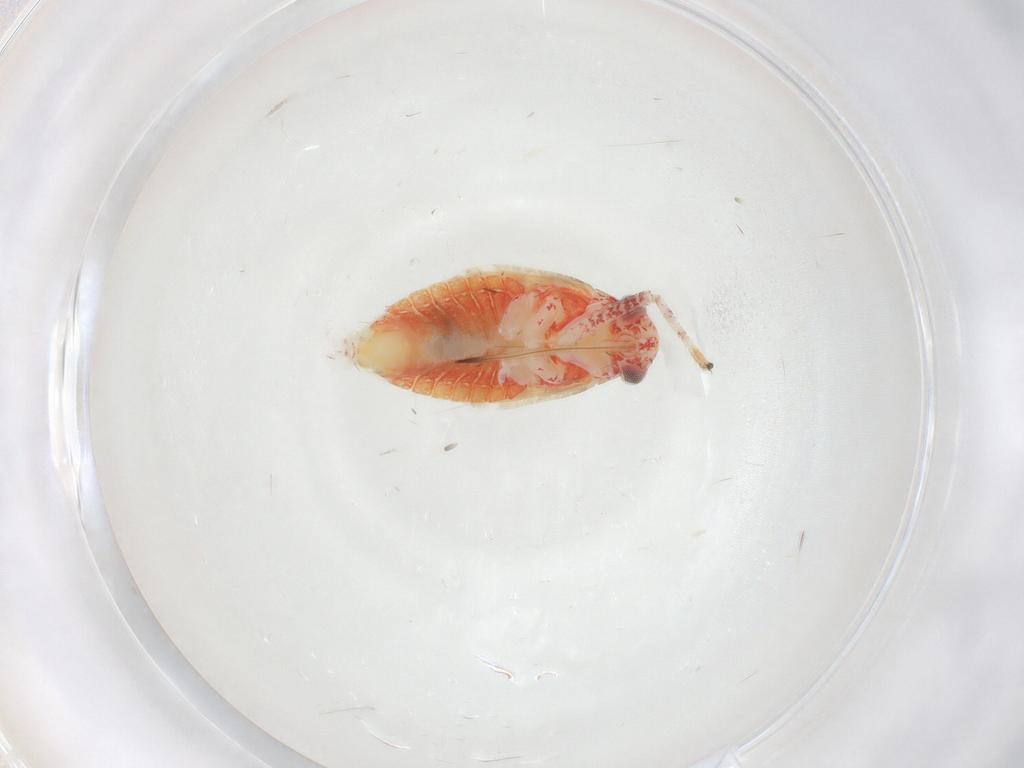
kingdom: Animalia
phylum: Arthropoda
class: Insecta
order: Hemiptera
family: Miridae
